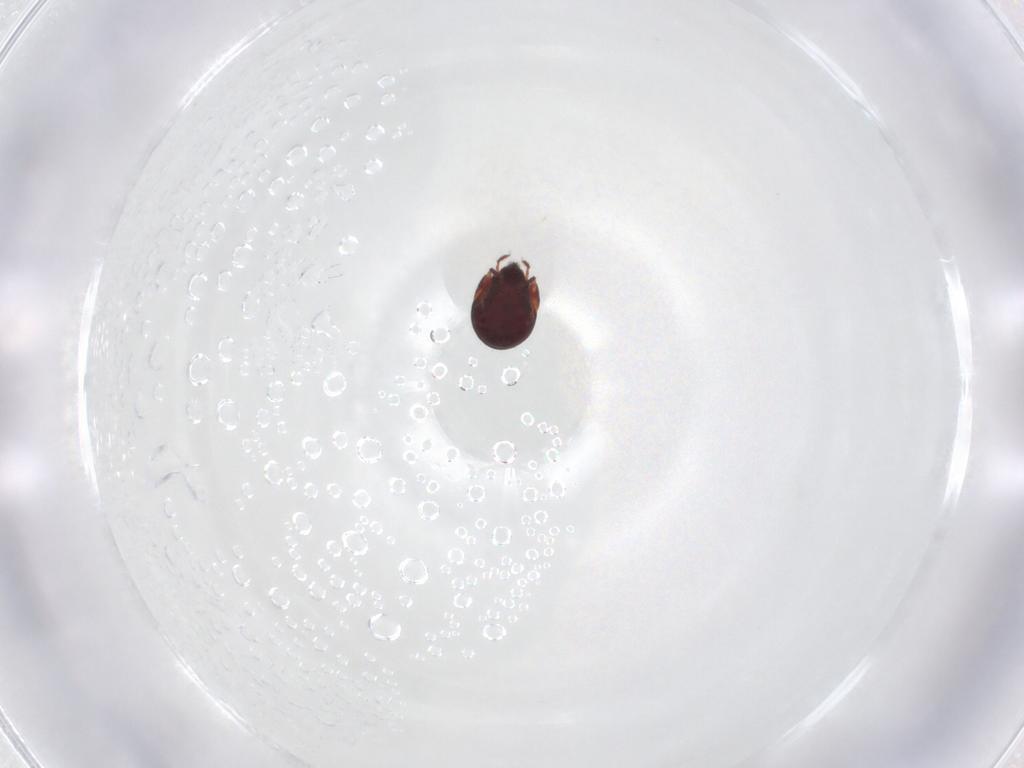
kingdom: Animalia
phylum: Arthropoda
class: Arachnida
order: Sarcoptiformes
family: Humerobatidae
